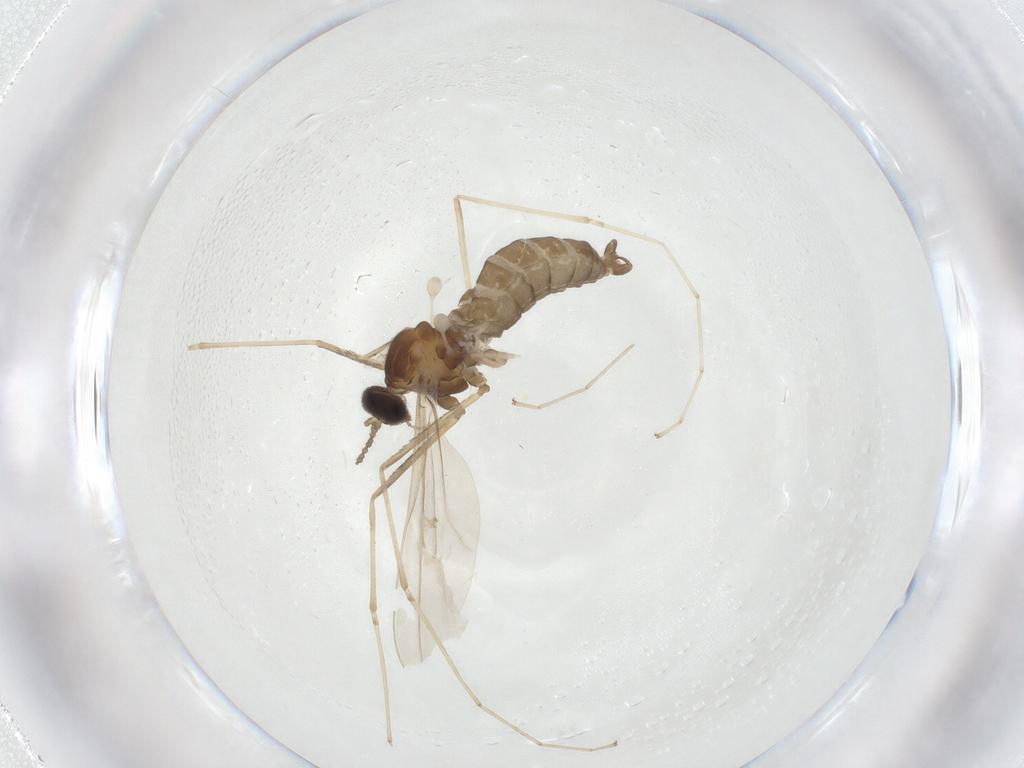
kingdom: Animalia
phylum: Arthropoda
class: Insecta
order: Diptera
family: Cecidomyiidae
